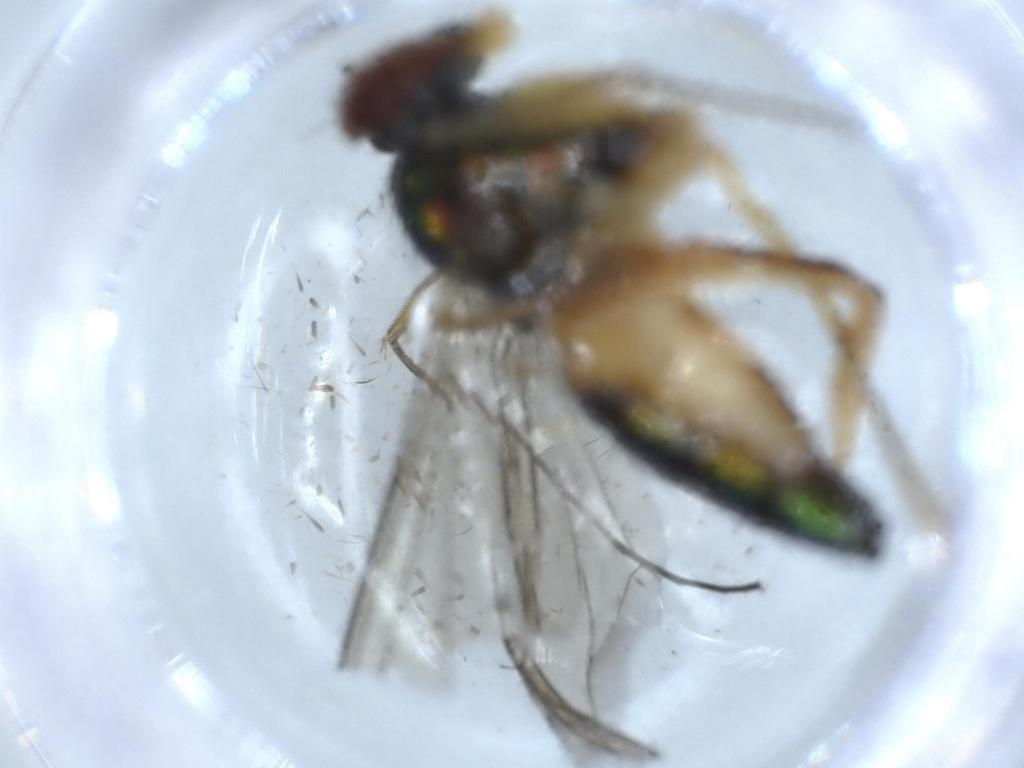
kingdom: Animalia
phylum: Arthropoda
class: Insecta
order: Diptera
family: Dolichopodidae
